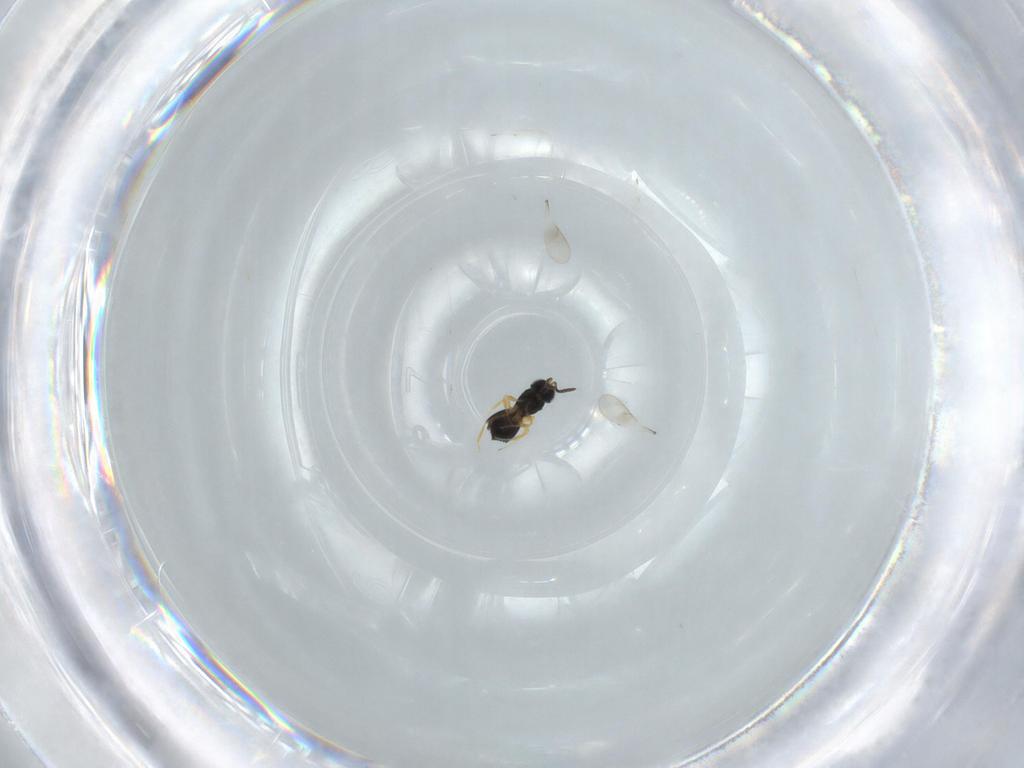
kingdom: Animalia
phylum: Arthropoda
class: Insecta
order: Hymenoptera
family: Scelionidae
